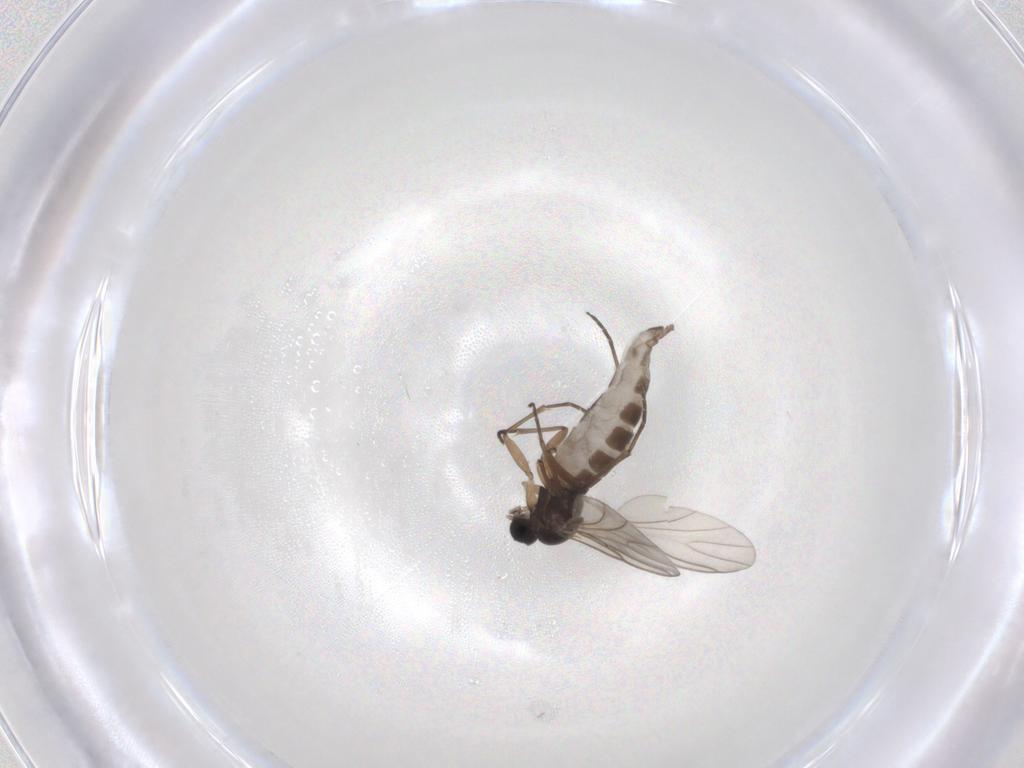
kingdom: Animalia
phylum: Arthropoda
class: Insecta
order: Diptera
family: Sciaridae
